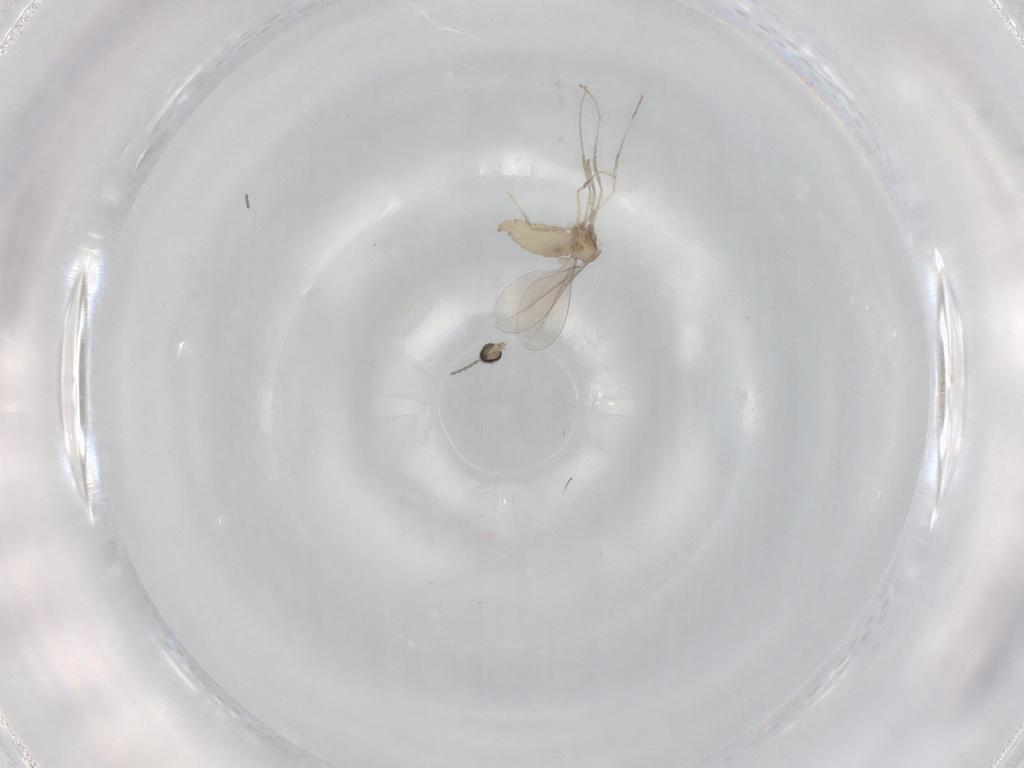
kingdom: Animalia
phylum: Arthropoda
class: Insecta
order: Diptera
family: Cecidomyiidae
